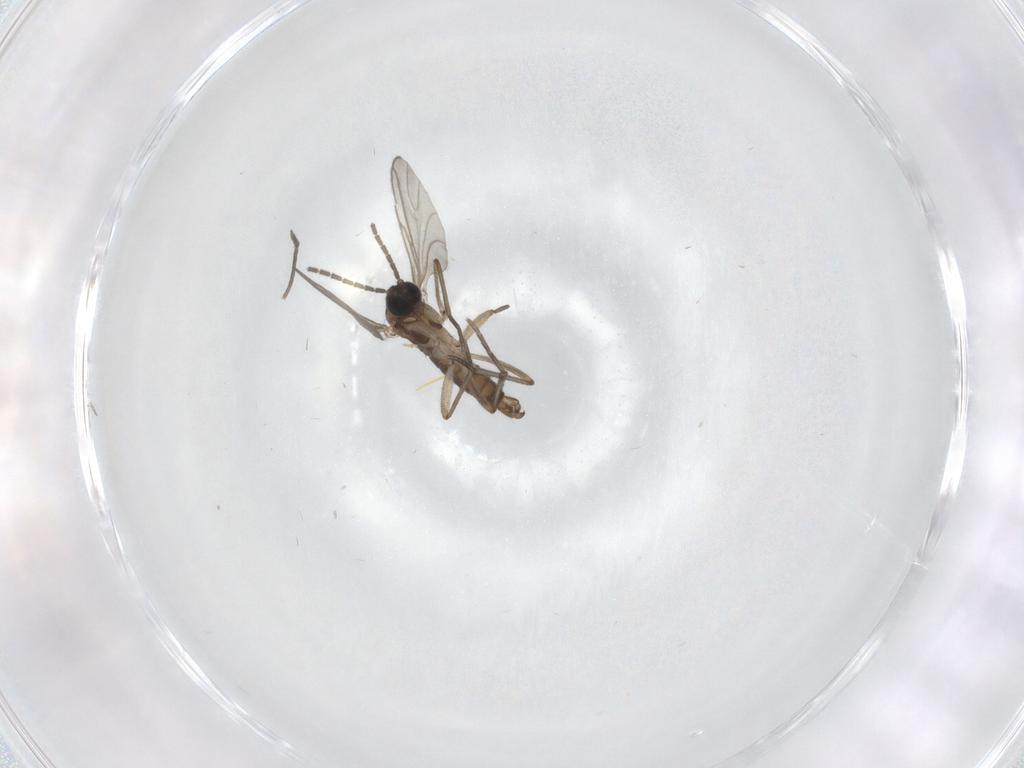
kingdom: Animalia
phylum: Arthropoda
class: Insecta
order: Diptera
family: Sciaridae
